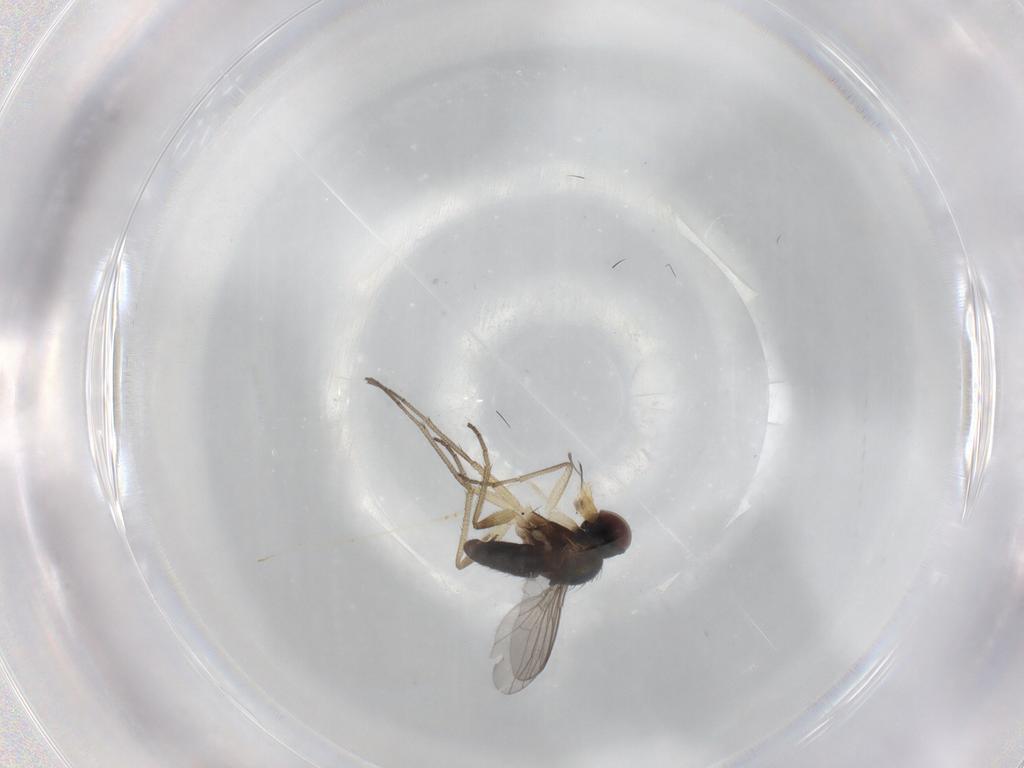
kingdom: Animalia
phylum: Arthropoda
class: Insecta
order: Diptera
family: Dolichopodidae
